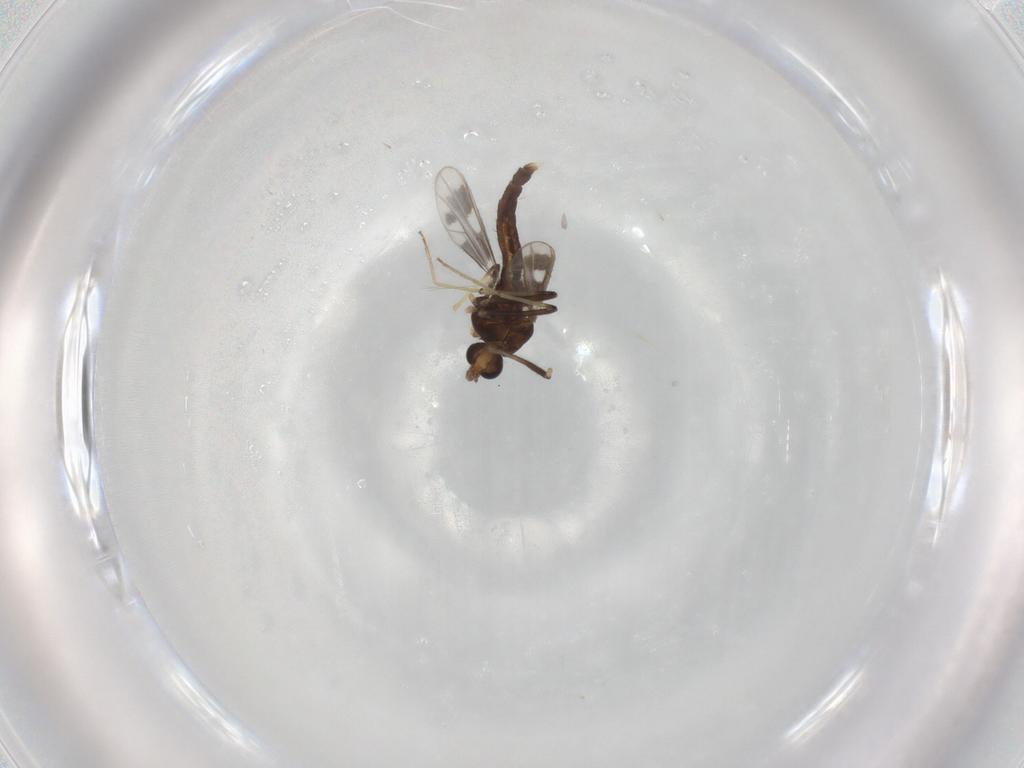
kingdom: Animalia
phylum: Arthropoda
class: Insecta
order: Diptera
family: Chironomidae
